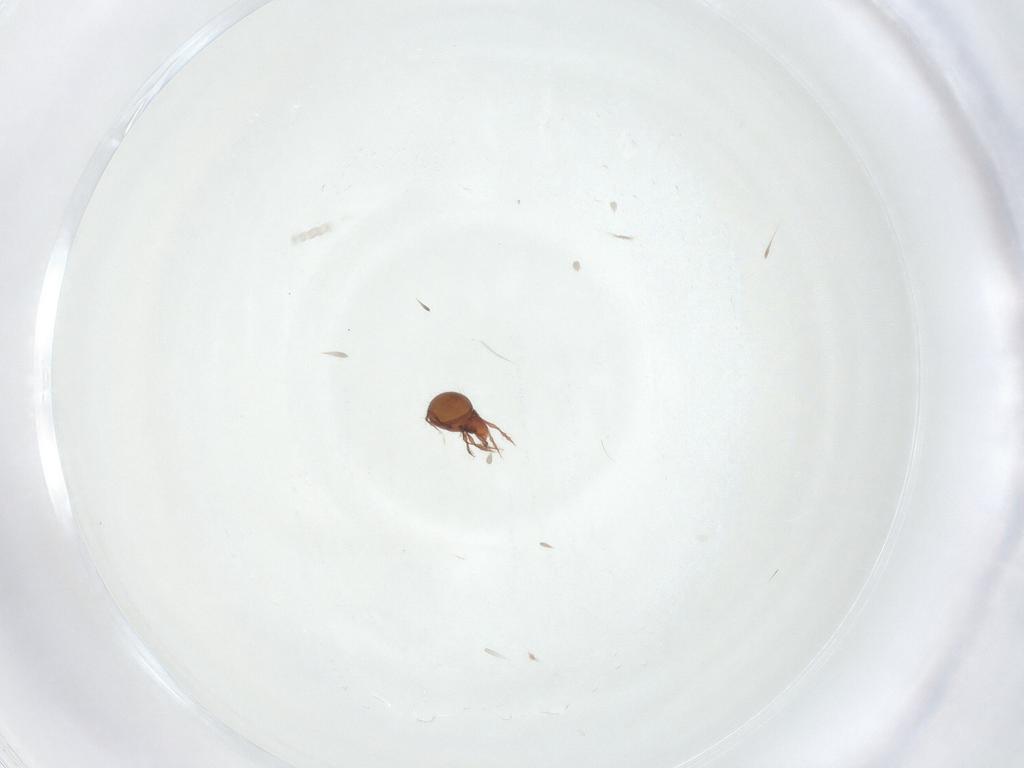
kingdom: Animalia
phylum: Arthropoda
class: Arachnida
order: Sarcoptiformes
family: Oppiidae
